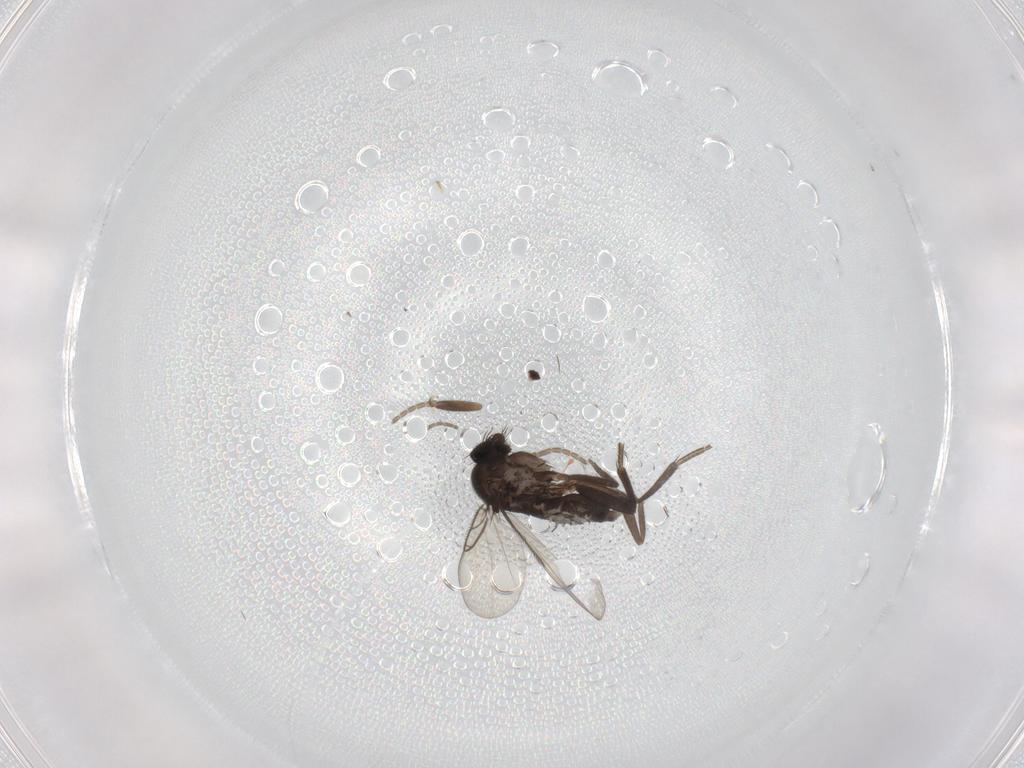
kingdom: Animalia
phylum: Arthropoda
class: Insecta
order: Diptera
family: Phoridae
